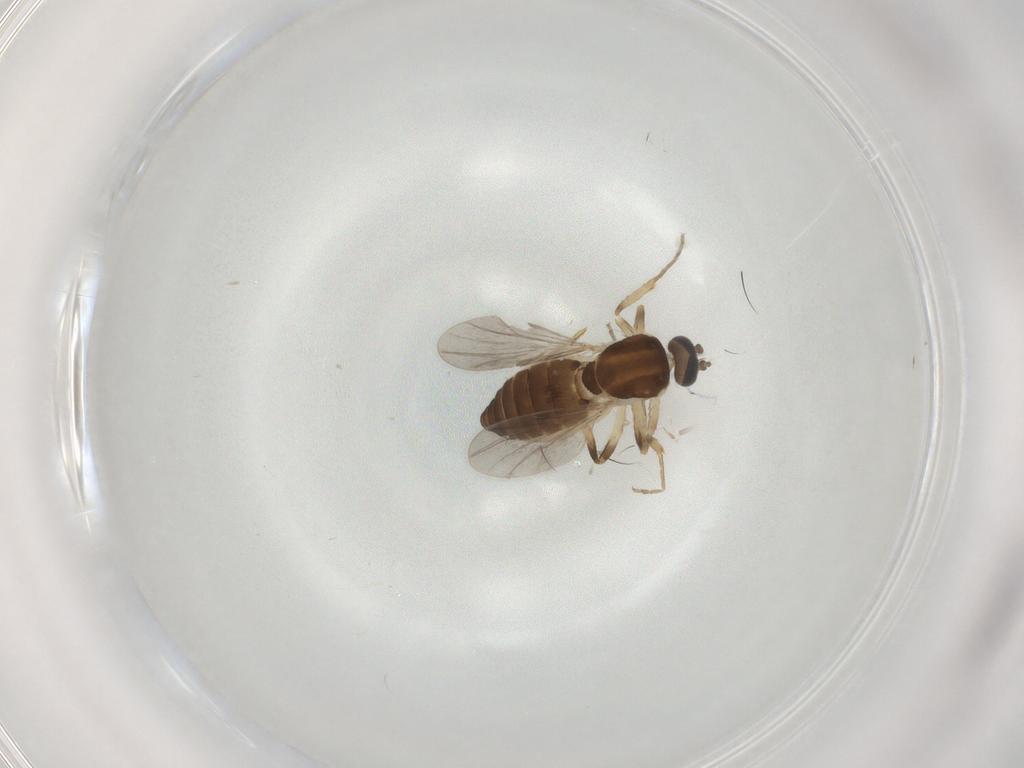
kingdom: Animalia
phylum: Arthropoda
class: Insecta
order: Diptera
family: Ceratopogonidae
